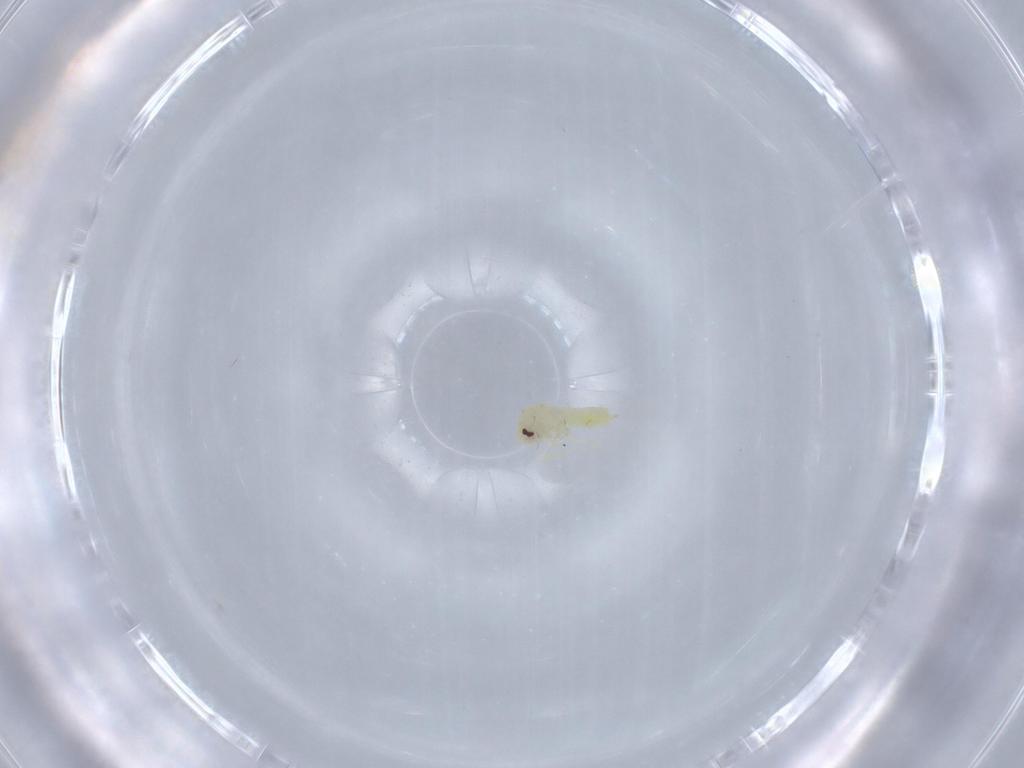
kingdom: Animalia
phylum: Arthropoda
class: Insecta
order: Hemiptera
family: Aleyrodidae
